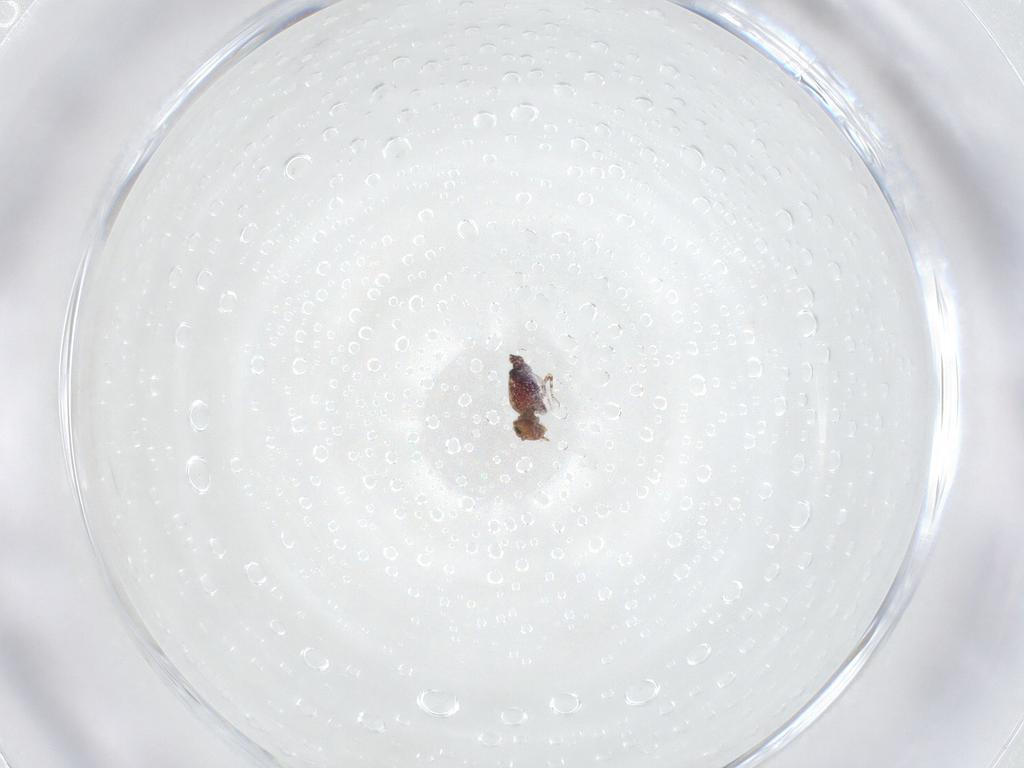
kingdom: Animalia
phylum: Arthropoda
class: Collembola
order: Symphypleona
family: Bourletiellidae
